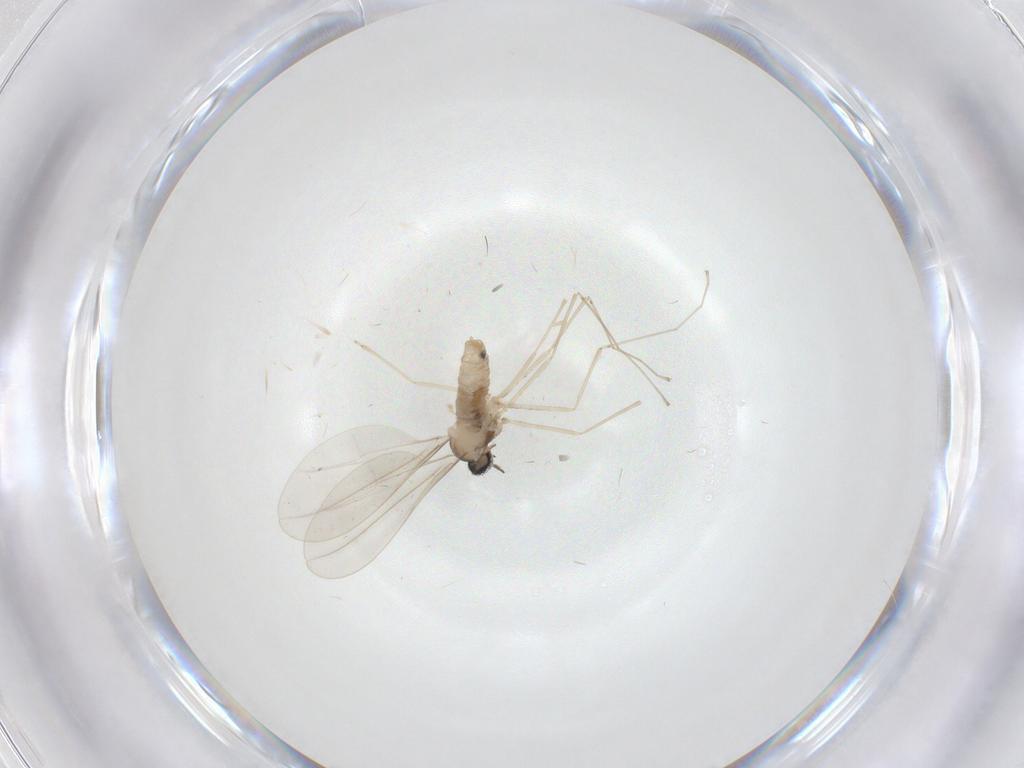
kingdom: Animalia
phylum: Arthropoda
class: Insecta
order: Diptera
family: Cecidomyiidae
